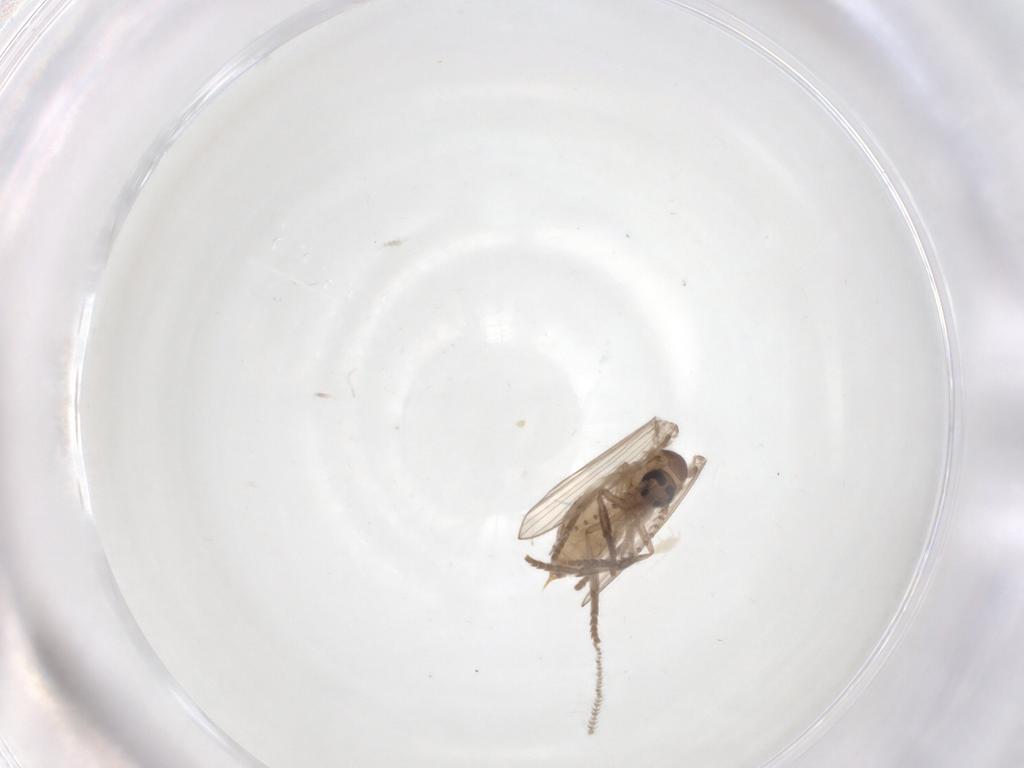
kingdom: Animalia
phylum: Arthropoda
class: Insecta
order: Diptera
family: Psychodidae
